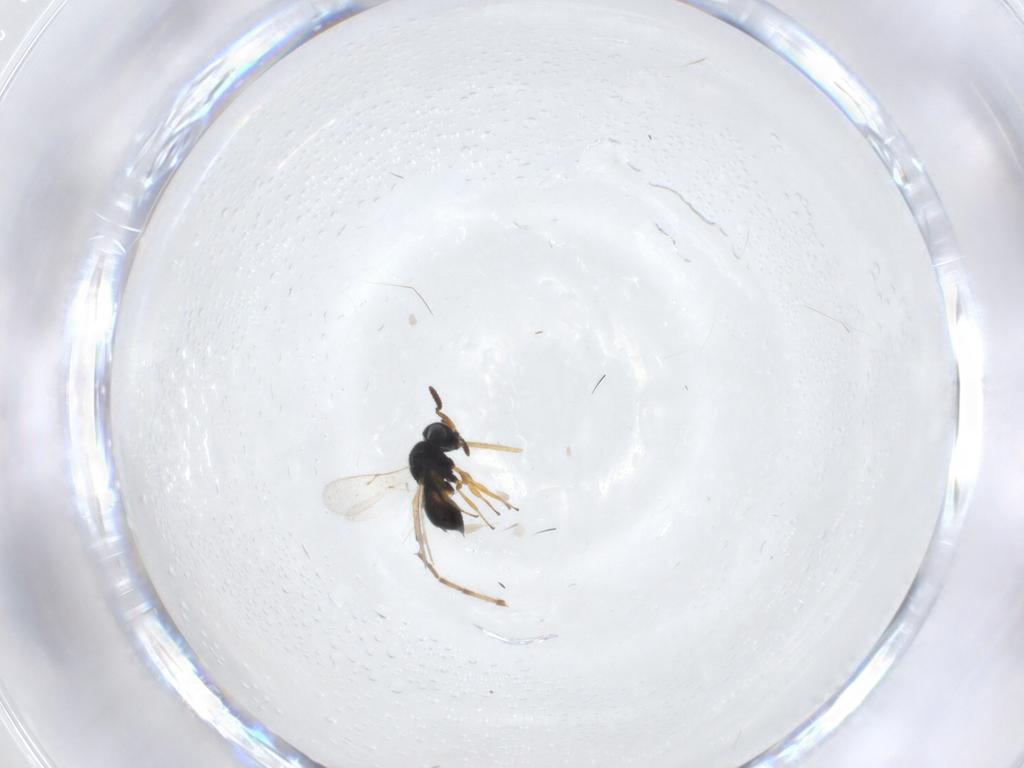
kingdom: Animalia
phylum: Arthropoda
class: Insecta
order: Hymenoptera
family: Scelionidae
